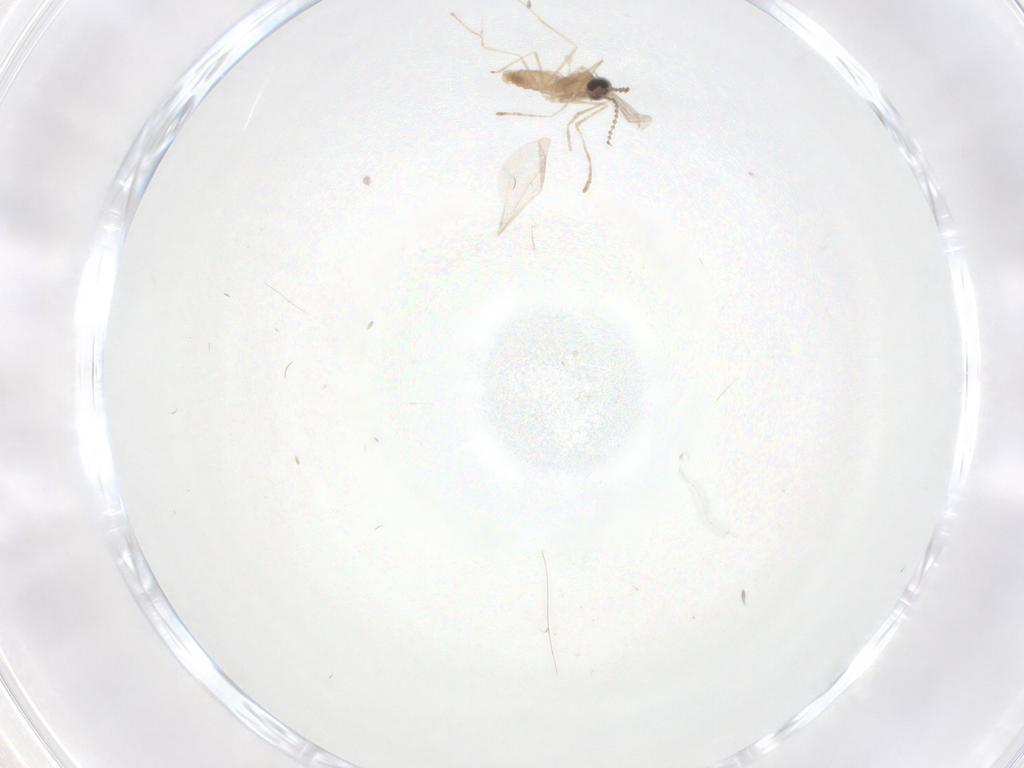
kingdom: Animalia
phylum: Arthropoda
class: Insecta
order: Diptera
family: Cecidomyiidae
